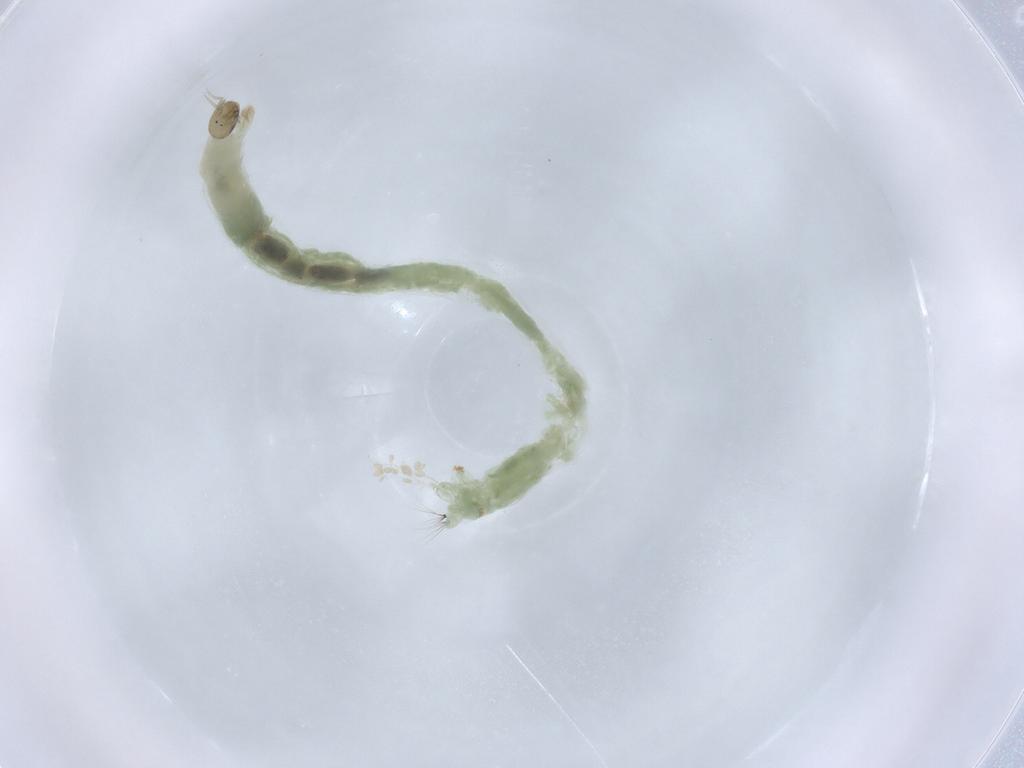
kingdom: Animalia
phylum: Arthropoda
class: Insecta
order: Diptera
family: Chironomidae
